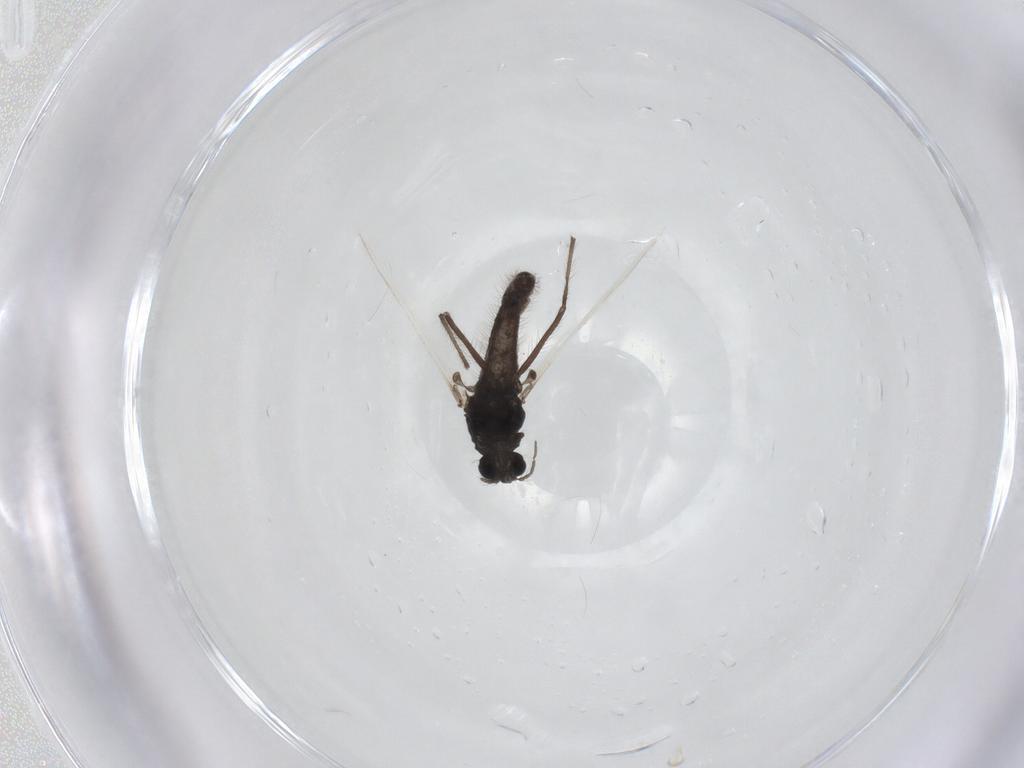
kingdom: Animalia
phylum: Arthropoda
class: Insecta
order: Diptera
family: Chironomidae
